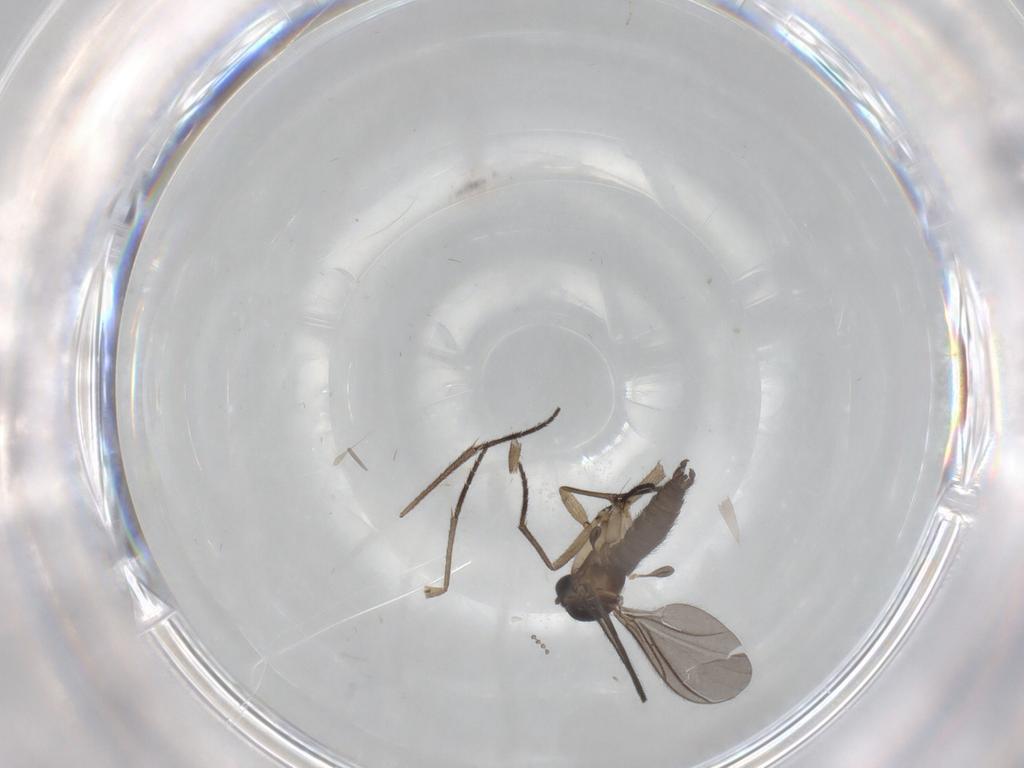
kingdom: Animalia
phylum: Arthropoda
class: Insecta
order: Diptera
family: Sciaridae
